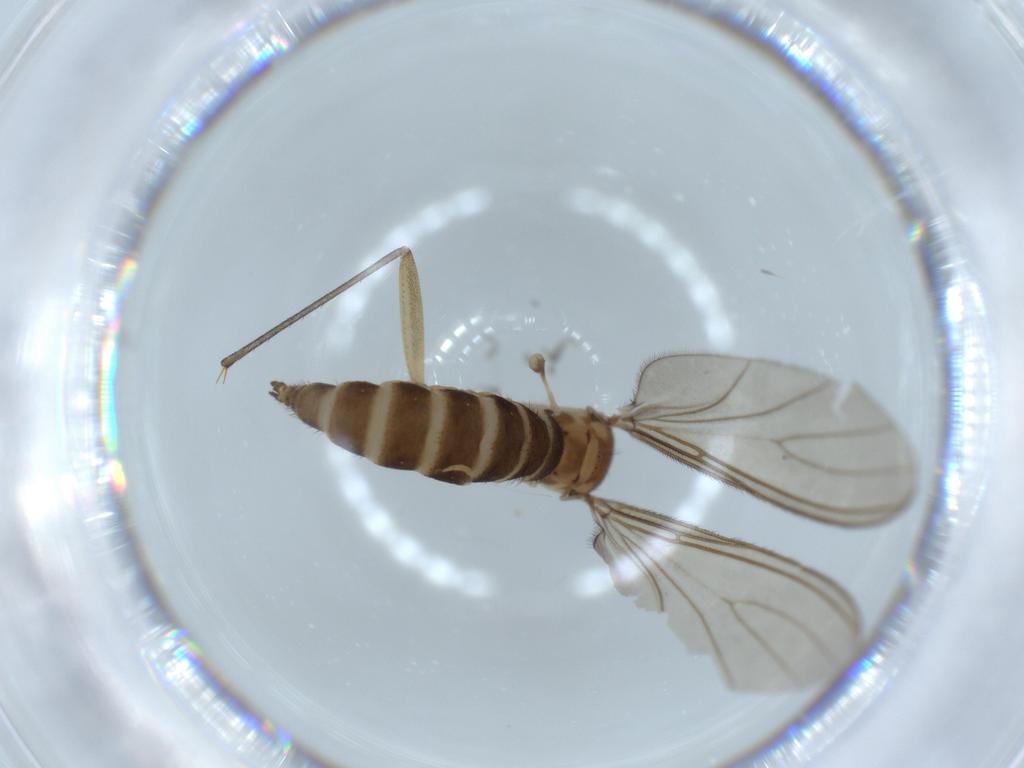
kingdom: Animalia
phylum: Arthropoda
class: Insecta
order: Diptera
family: Sciaridae
